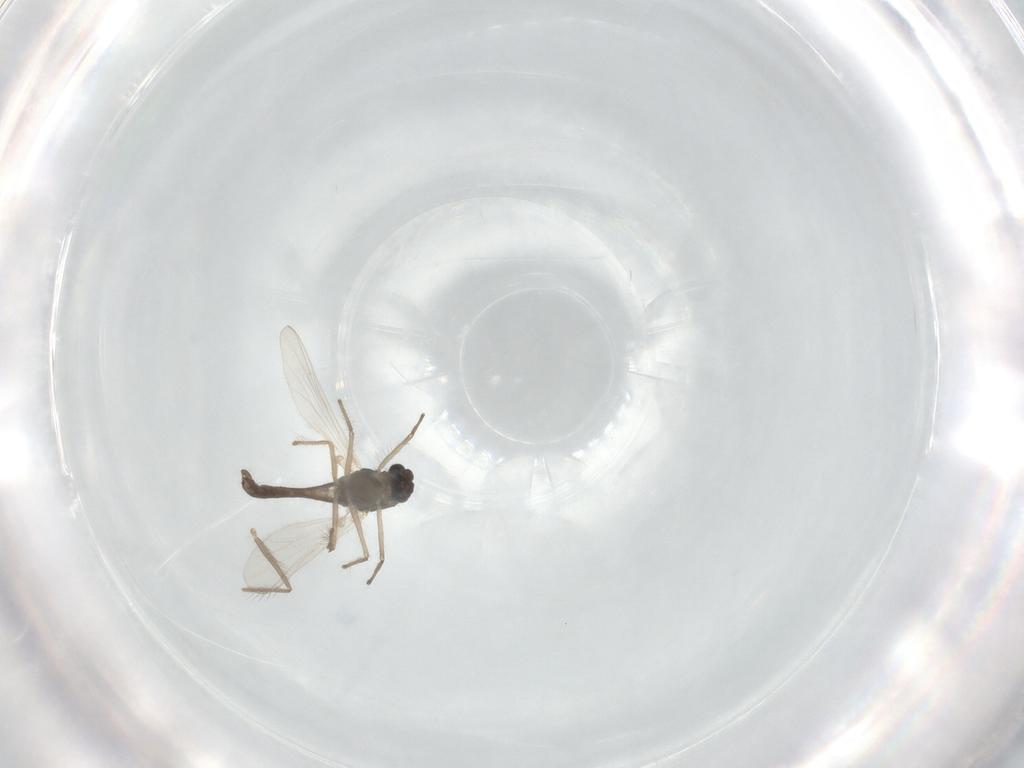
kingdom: Animalia
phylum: Arthropoda
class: Insecta
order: Diptera
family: Chironomidae
